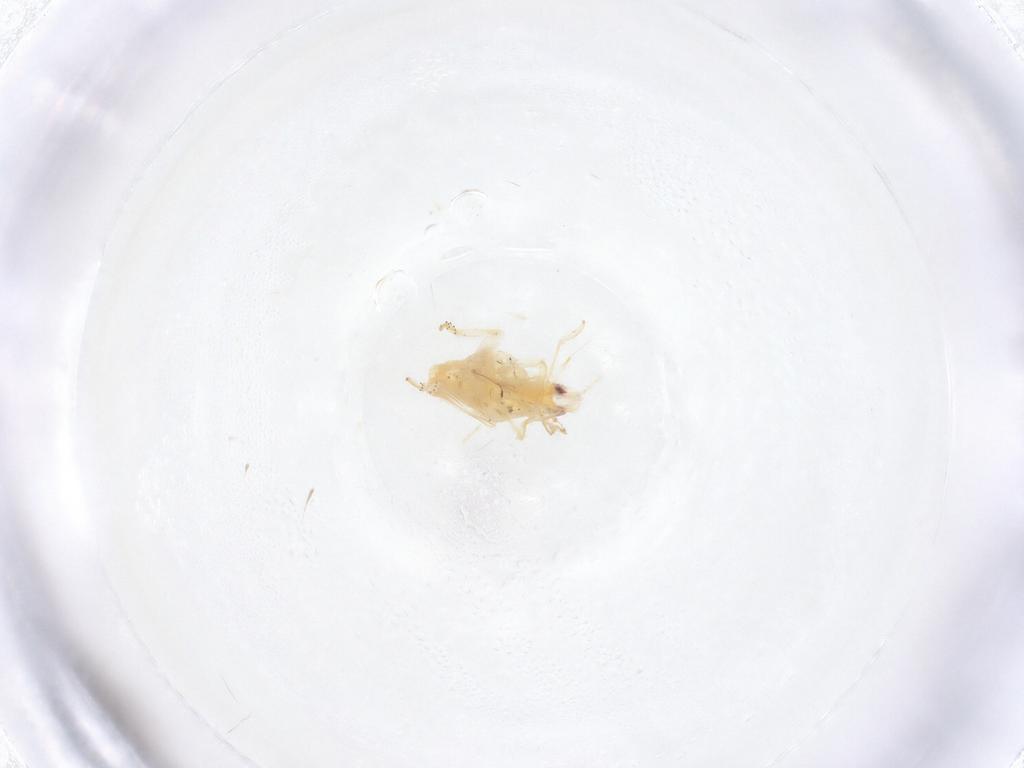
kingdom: Animalia
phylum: Arthropoda
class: Insecta
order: Hemiptera
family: Flatidae
